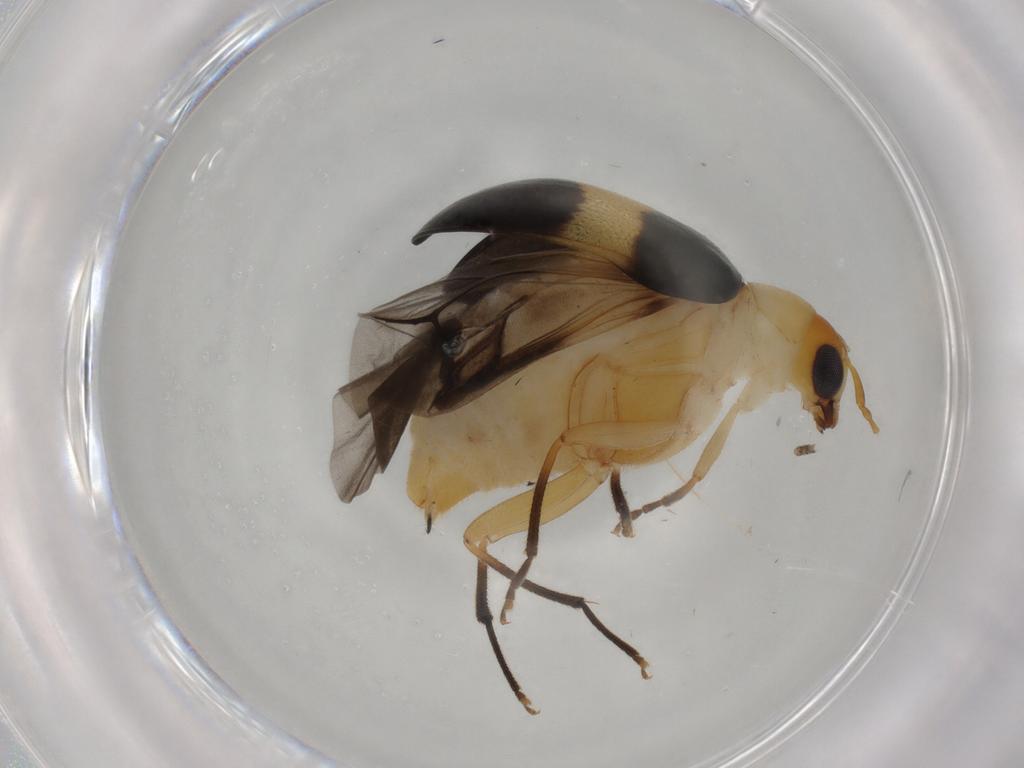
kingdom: Animalia
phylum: Arthropoda
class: Insecta
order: Coleoptera
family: Chrysomelidae
